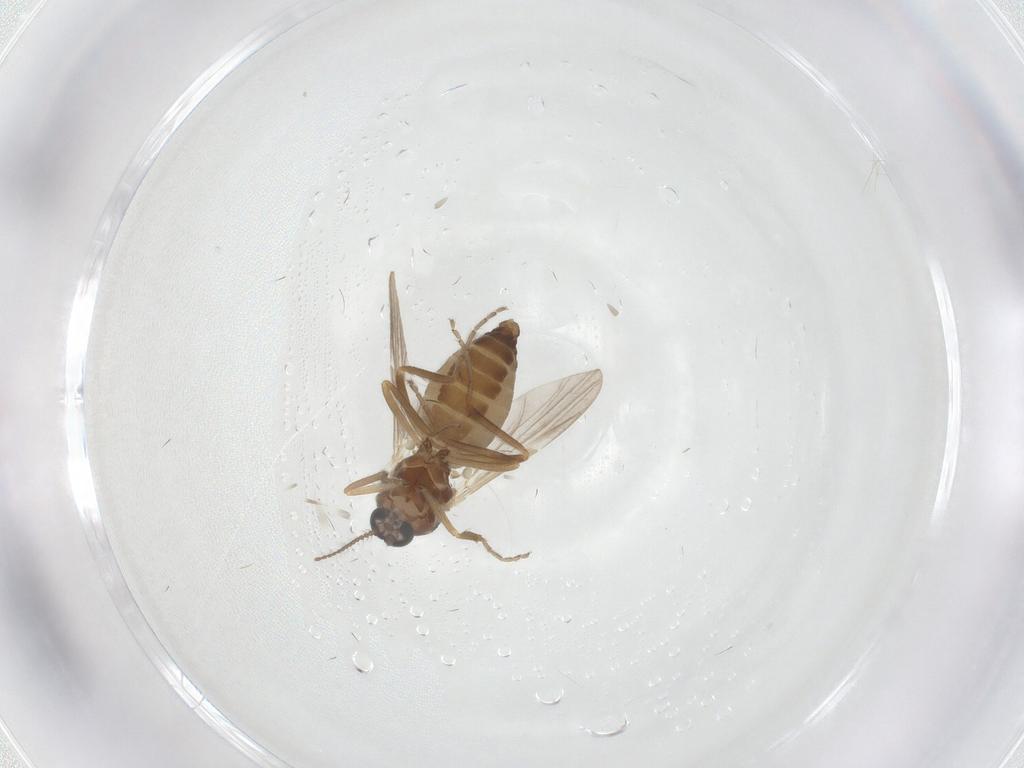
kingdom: Animalia
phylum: Arthropoda
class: Insecta
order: Diptera
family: Ceratopogonidae
